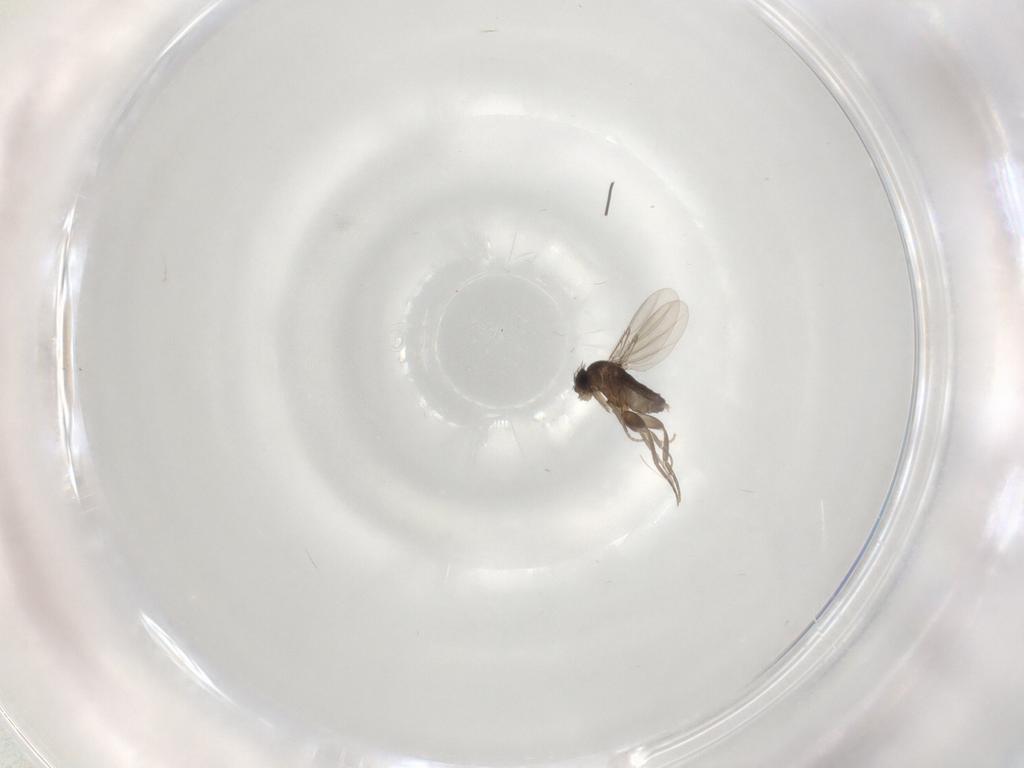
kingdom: Animalia
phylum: Arthropoda
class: Insecta
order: Diptera
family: Phoridae
